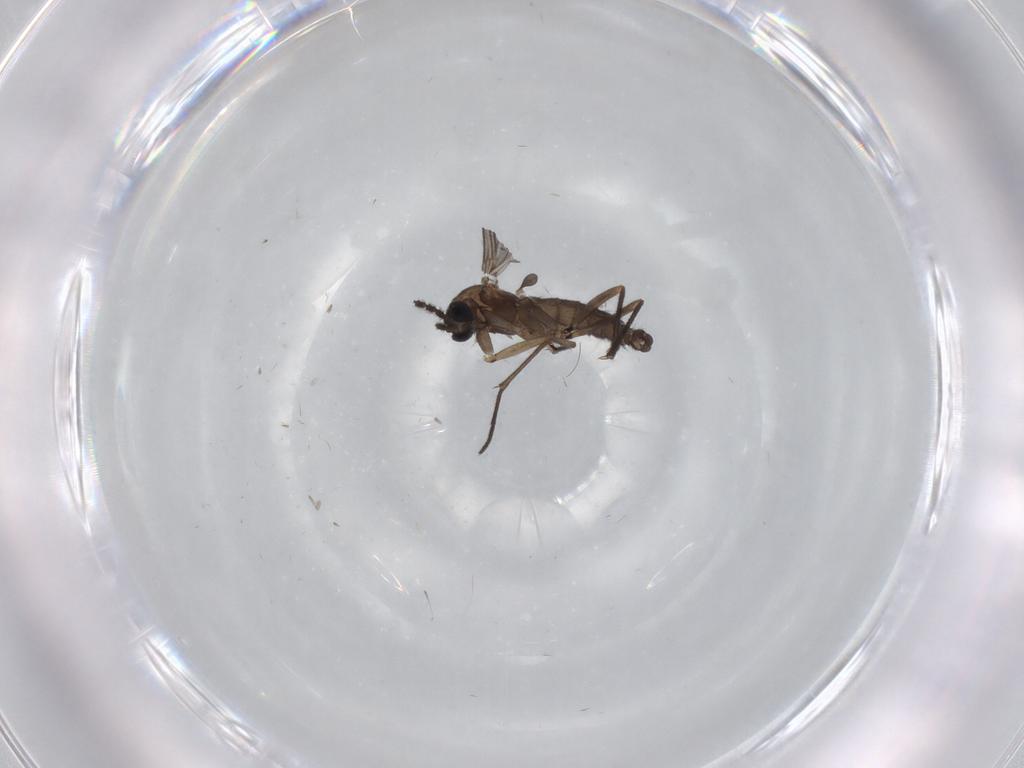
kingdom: Animalia
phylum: Arthropoda
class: Insecta
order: Diptera
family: Sciaridae
